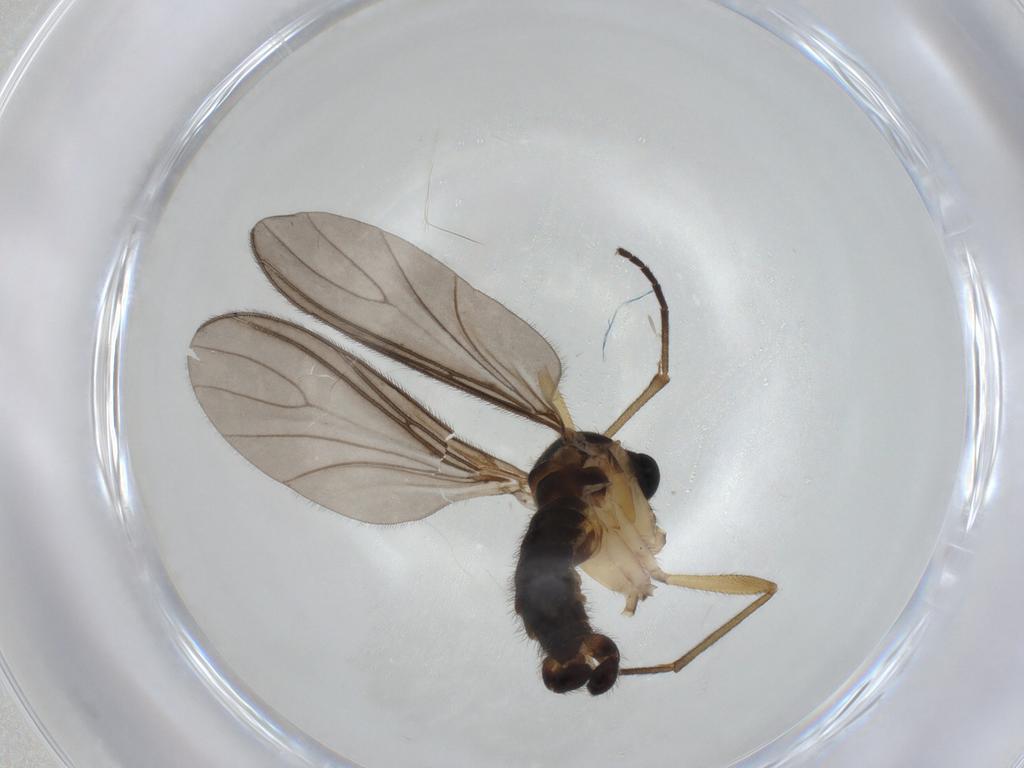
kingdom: Animalia
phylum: Arthropoda
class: Insecta
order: Diptera
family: Sciaridae
